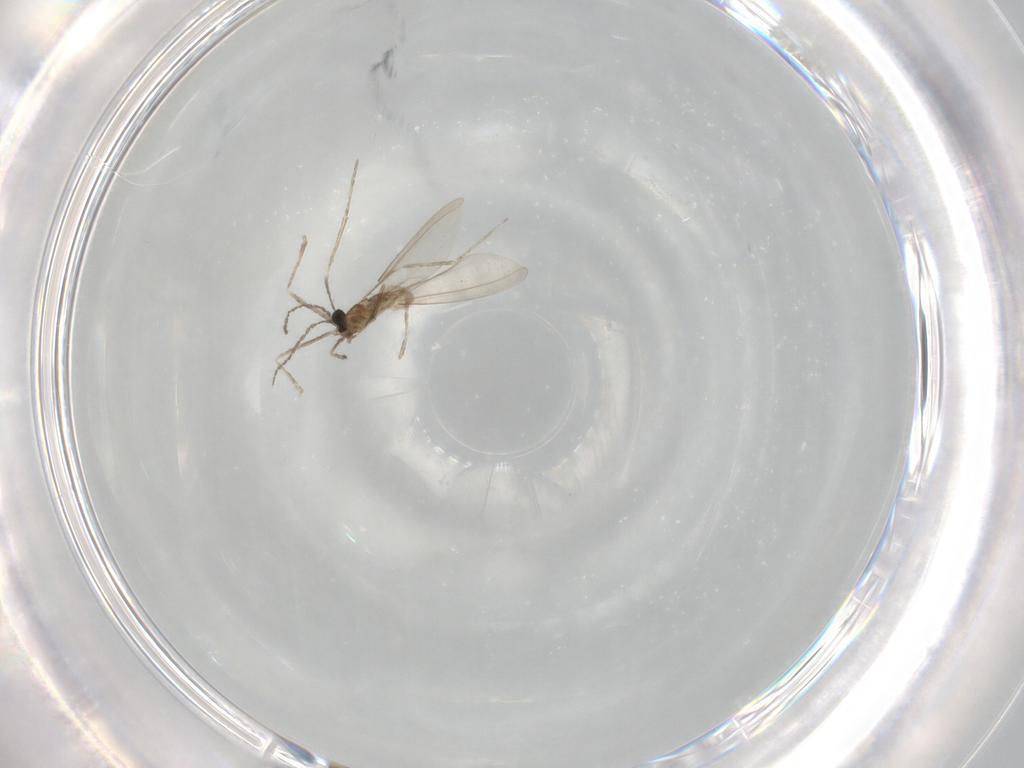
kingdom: Animalia
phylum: Arthropoda
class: Insecta
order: Diptera
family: Cecidomyiidae
